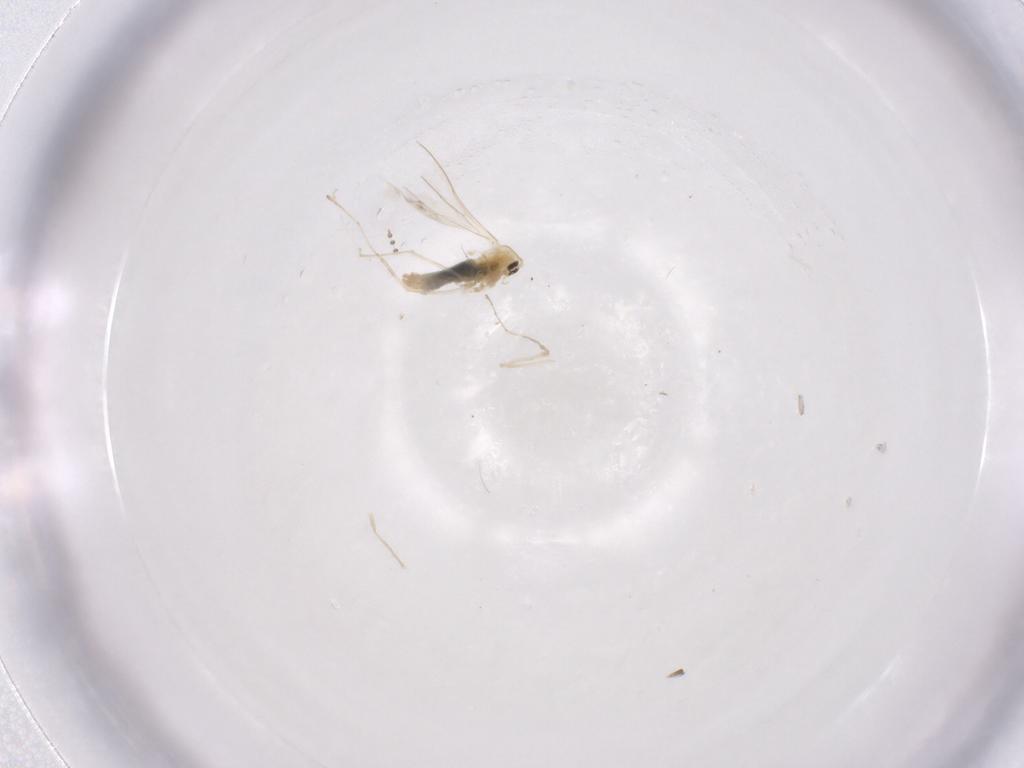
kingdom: Animalia
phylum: Arthropoda
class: Insecta
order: Diptera
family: Cecidomyiidae
